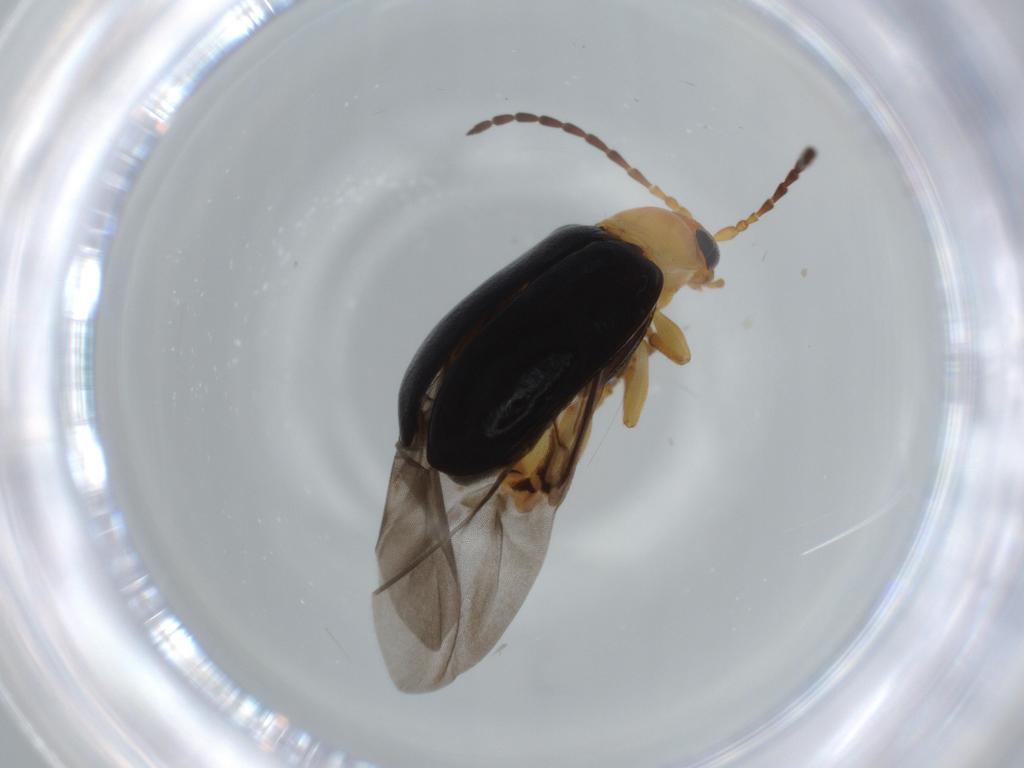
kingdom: Animalia
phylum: Arthropoda
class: Insecta
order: Coleoptera
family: Chrysomelidae
